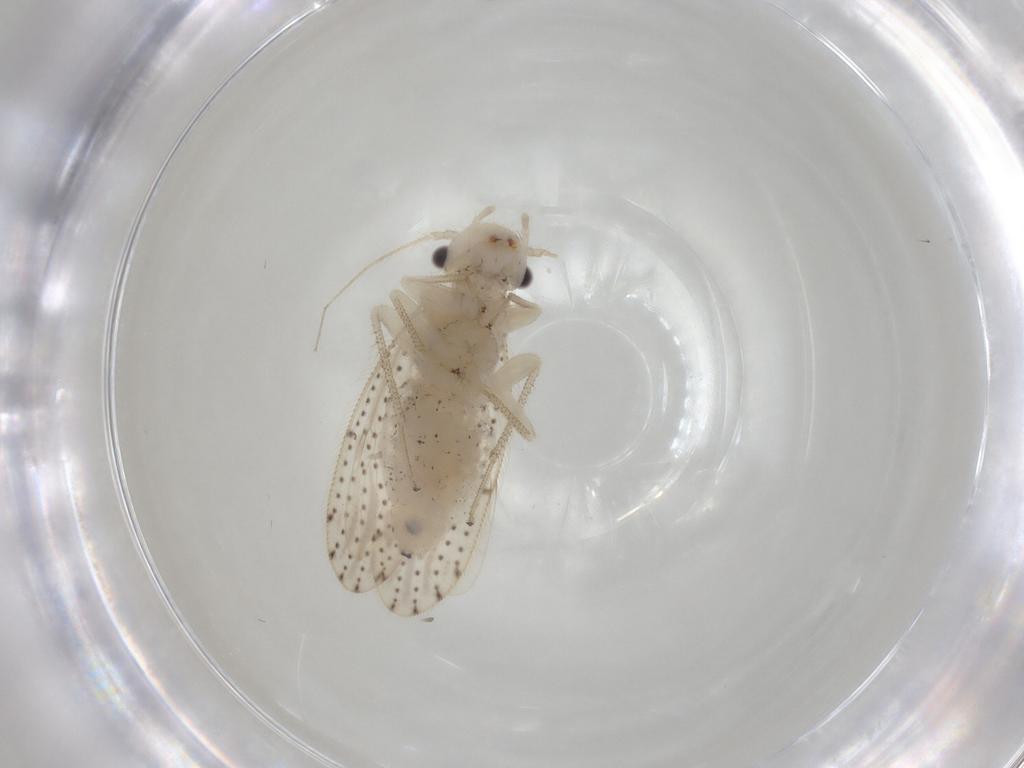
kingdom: Animalia
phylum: Arthropoda
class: Insecta
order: Psocodea
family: Myopsocidae
